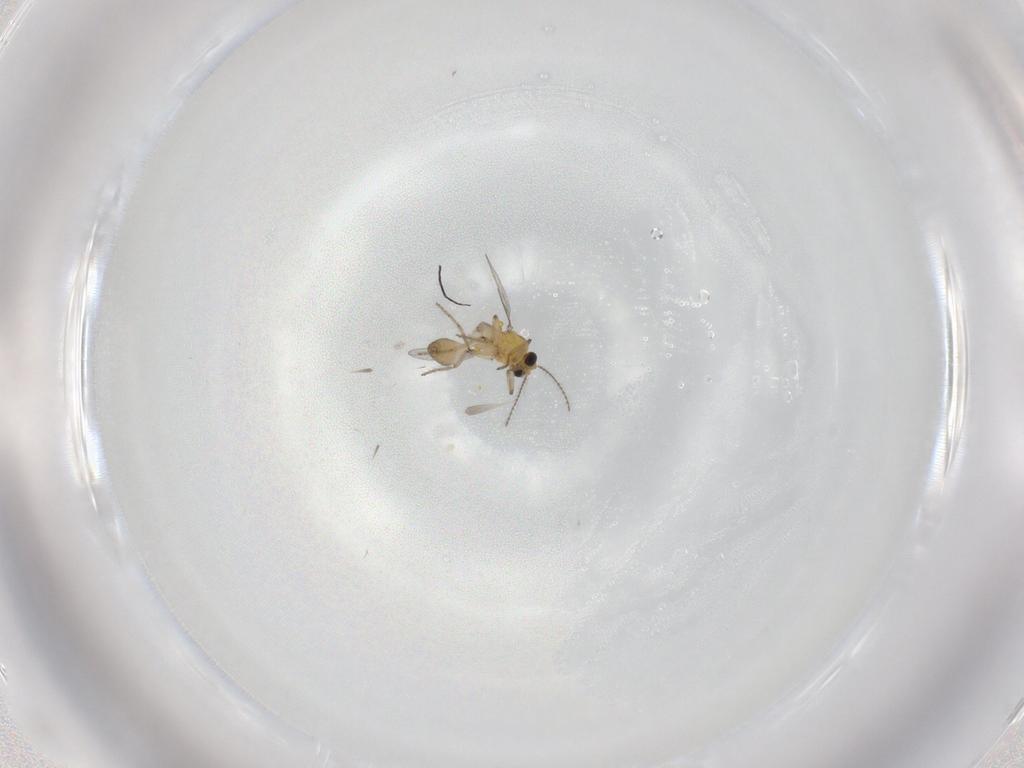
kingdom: Animalia
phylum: Arthropoda
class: Insecta
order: Diptera
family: Ceratopogonidae
